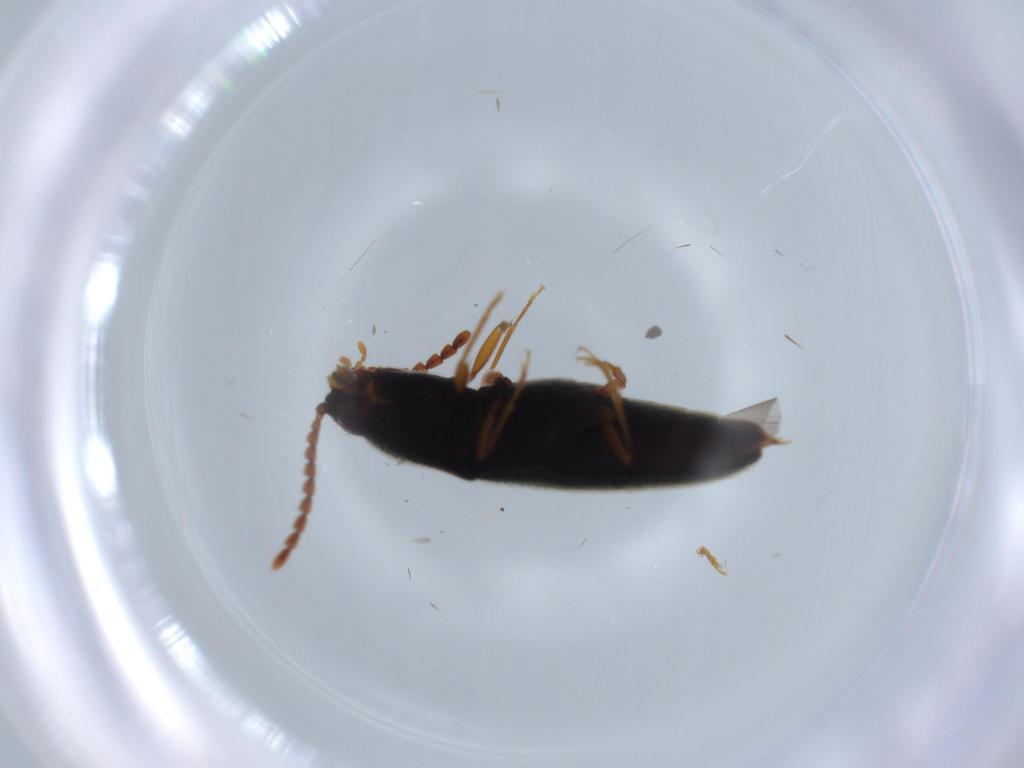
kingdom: Animalia
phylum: Arthropoda
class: Insecta
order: Coleoptera
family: Elateridae
